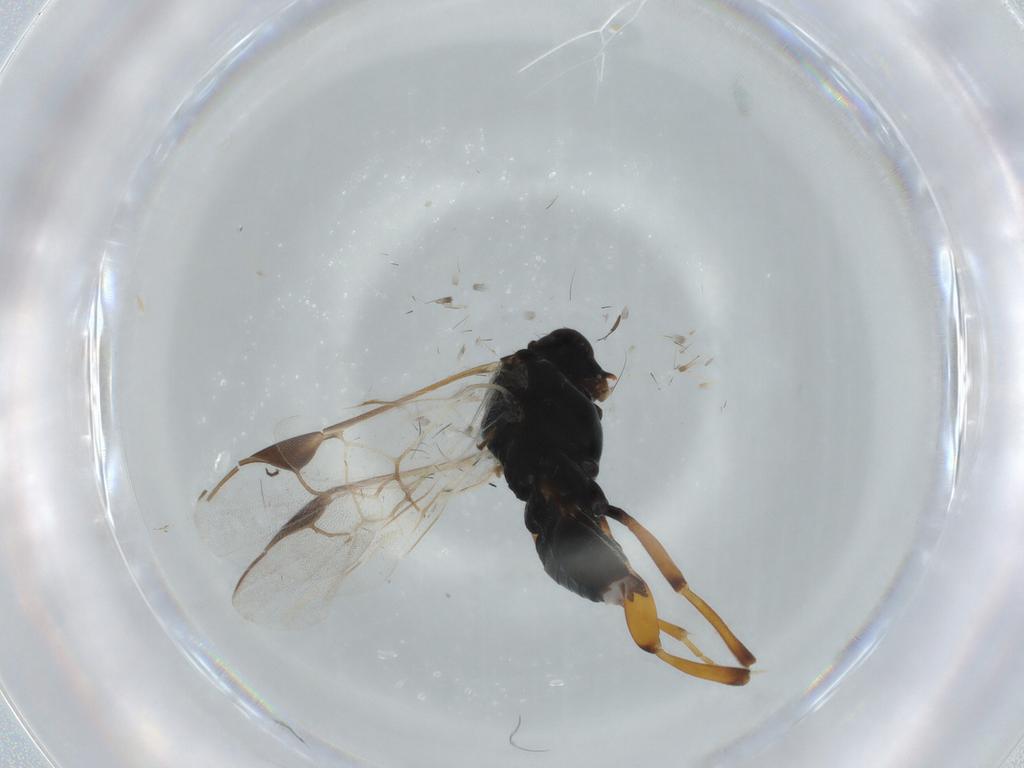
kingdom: Animalia
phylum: Arthropoda
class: Insecta
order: Hymenoptera
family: Braconidae
